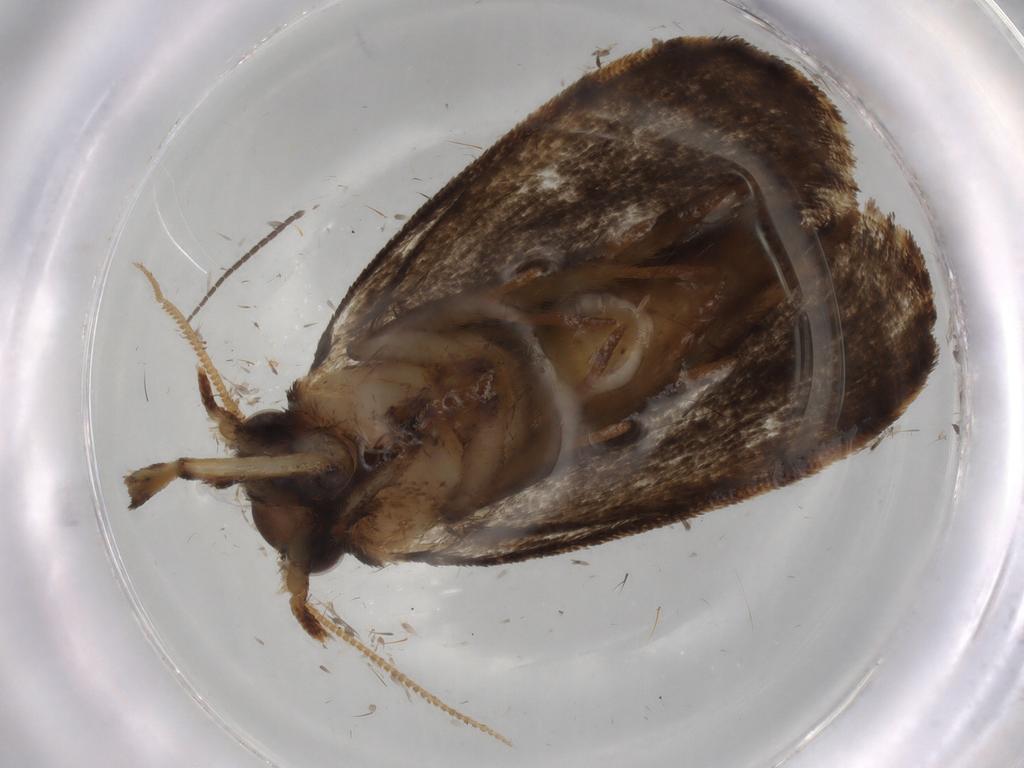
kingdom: Animalia
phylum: Arthropoda
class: Insecta
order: Lepidoptera
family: Tineidae
